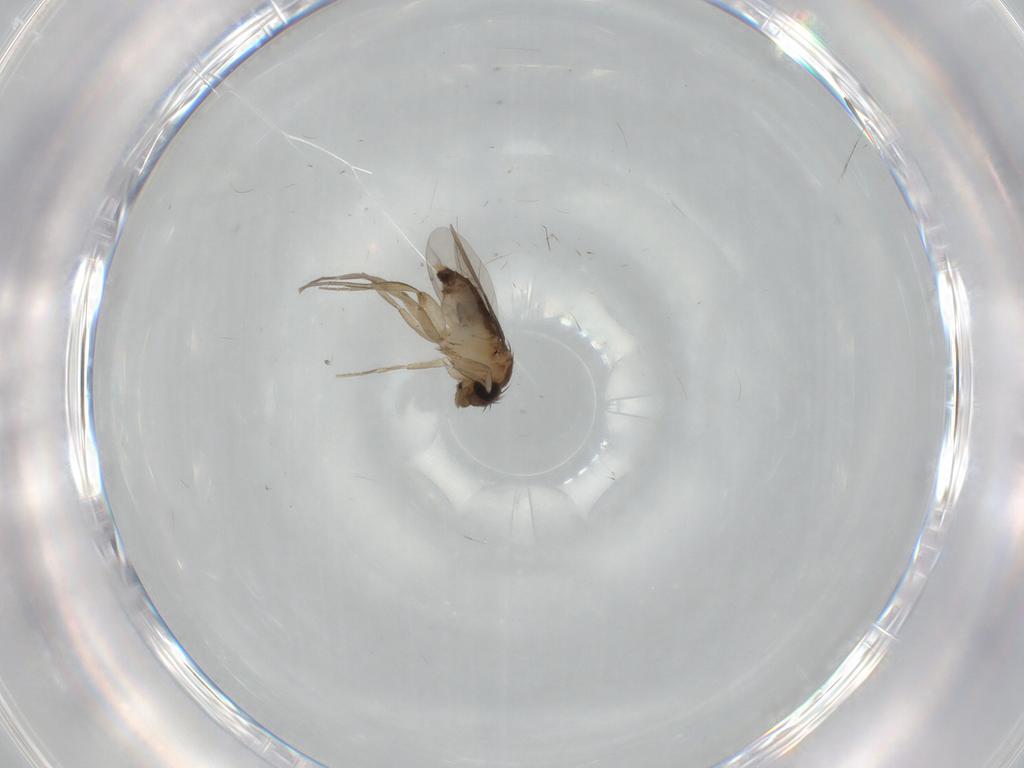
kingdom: Animalia
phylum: Arthropoda
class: Insecta
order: Diptera
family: Phoridae
